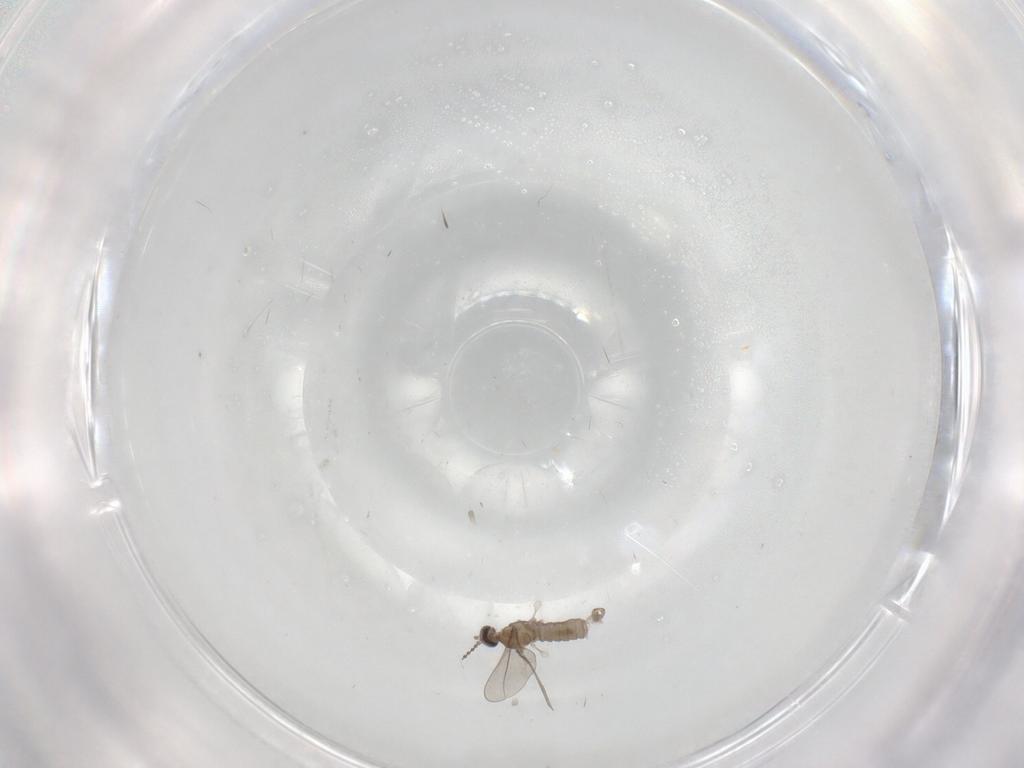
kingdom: Animalia
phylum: Arthropoda
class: Insecta
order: Diptera
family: Cecidomyiidae
